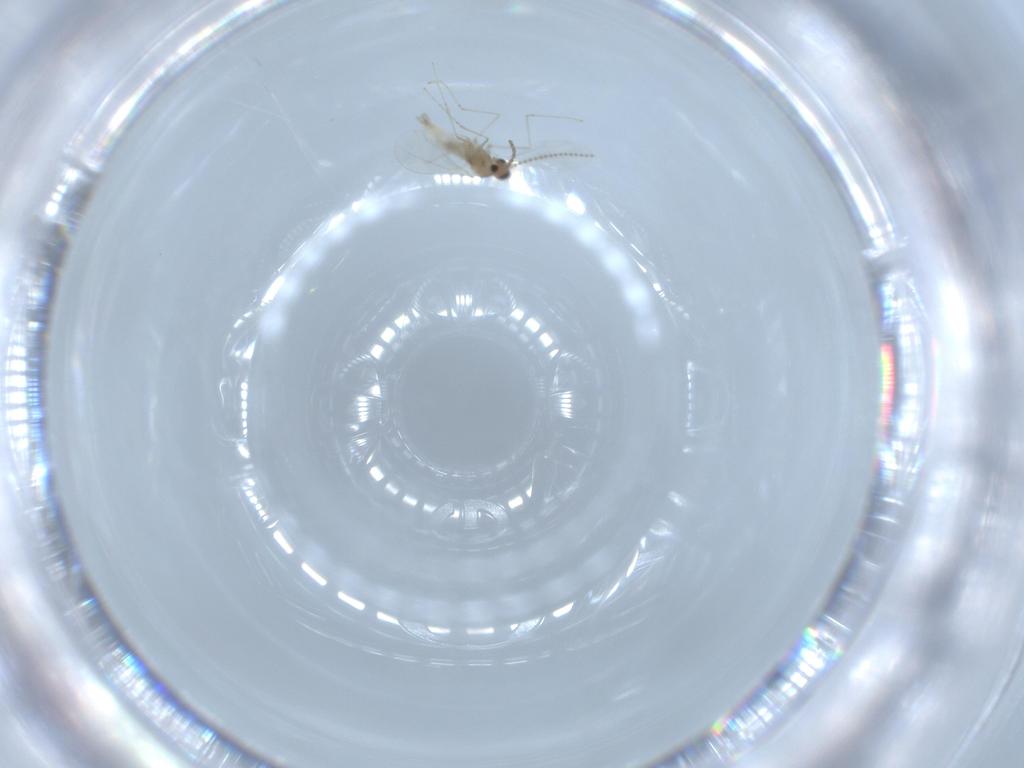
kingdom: Animalia
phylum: Arthropoda
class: Insecta
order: Diptera
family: Cecidomyiidae
